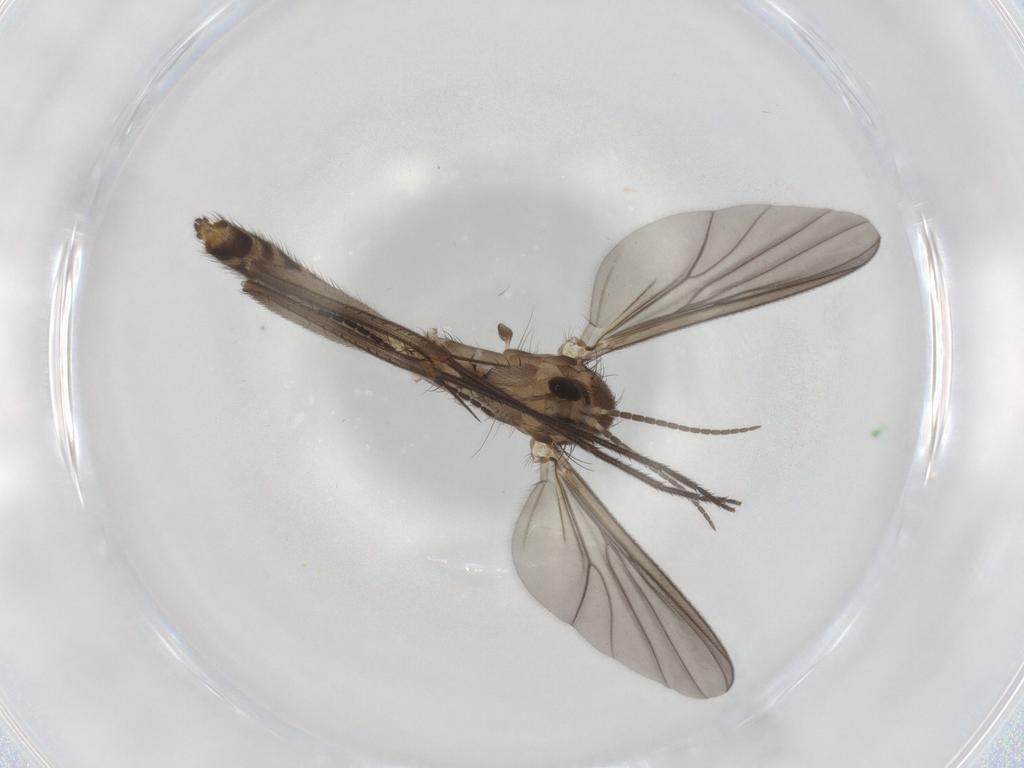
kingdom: Animalia
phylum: Arthropoda
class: Insecta
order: Diptera
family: Mycetophilidae
